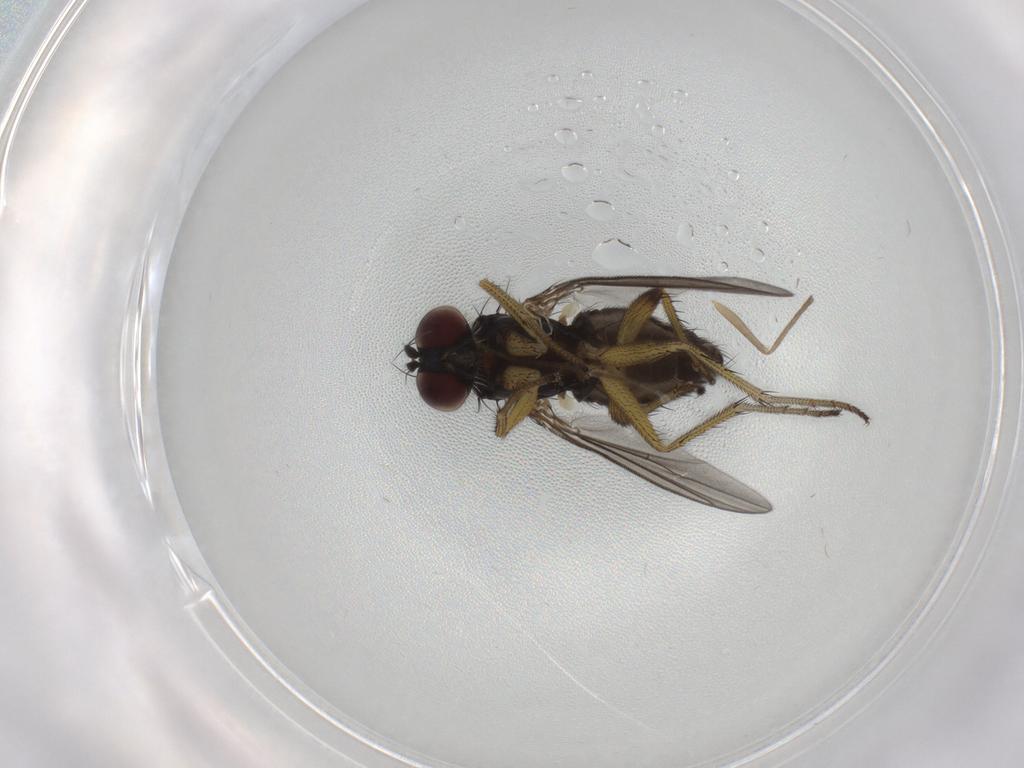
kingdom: Animalia
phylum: Arthropoda
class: Insecta
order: Diptera
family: Dolichopodidae
